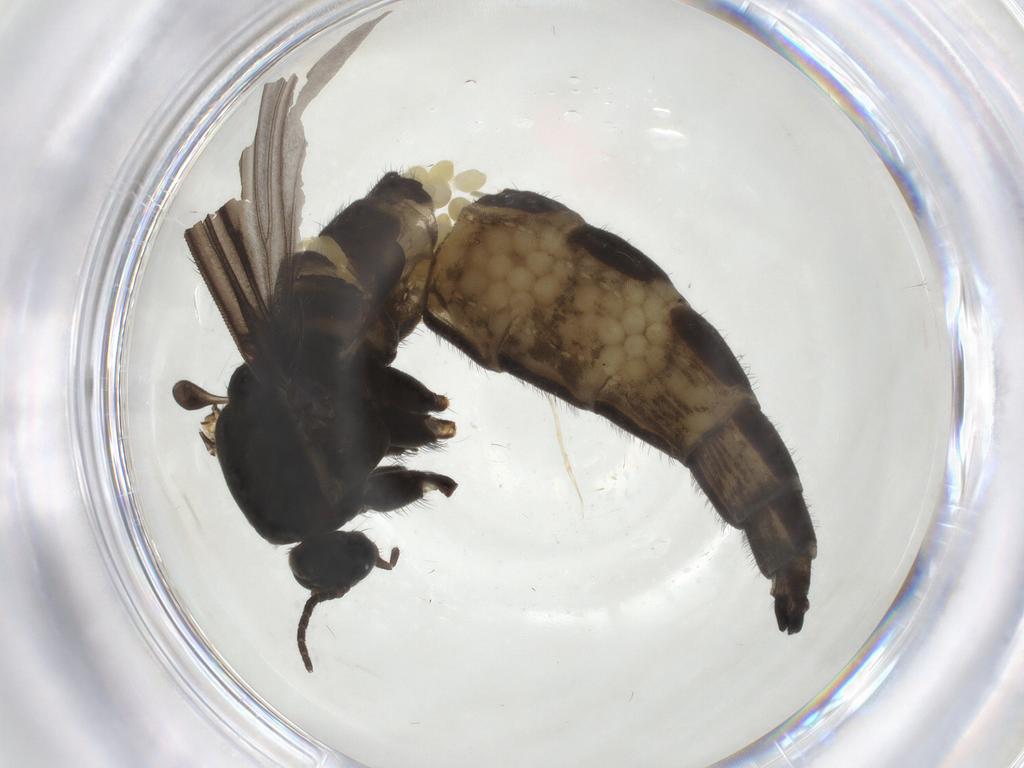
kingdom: Animalia
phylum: Arthropoda
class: Insecta
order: Diptera
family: Sciaridae
